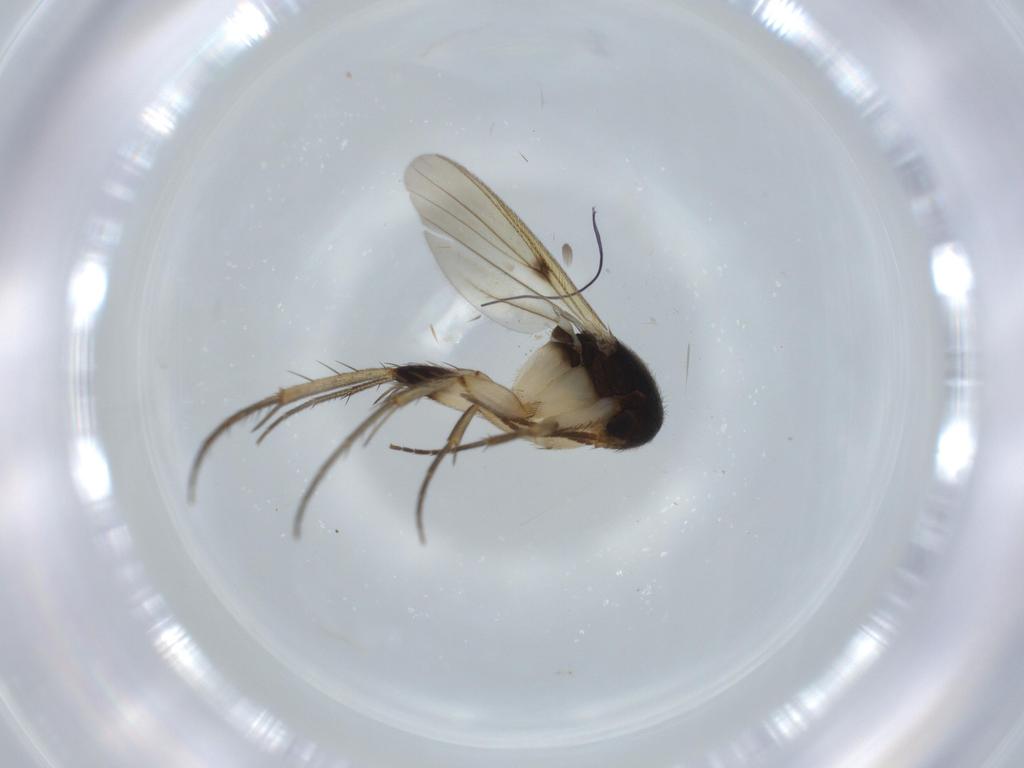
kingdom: Animalia
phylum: Arthropoda
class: Insecta
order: Diptera
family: Mycetophilidae
